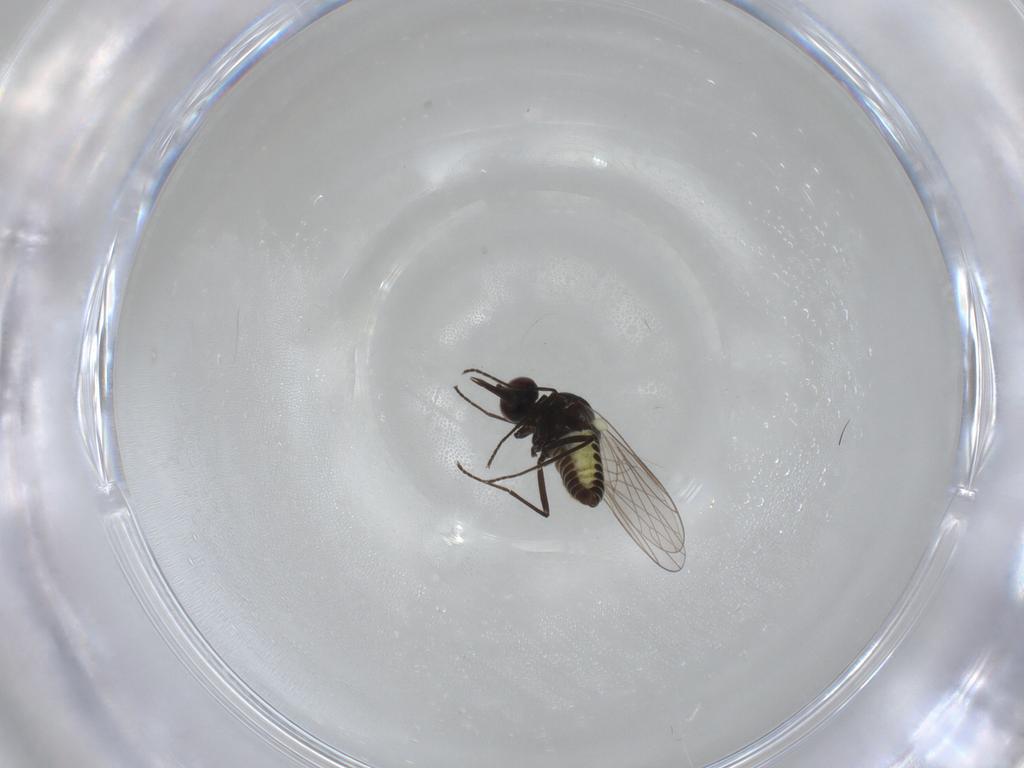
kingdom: Animalia
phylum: Arthropoda
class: Insecta
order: Diptera
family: Bombyliidae
